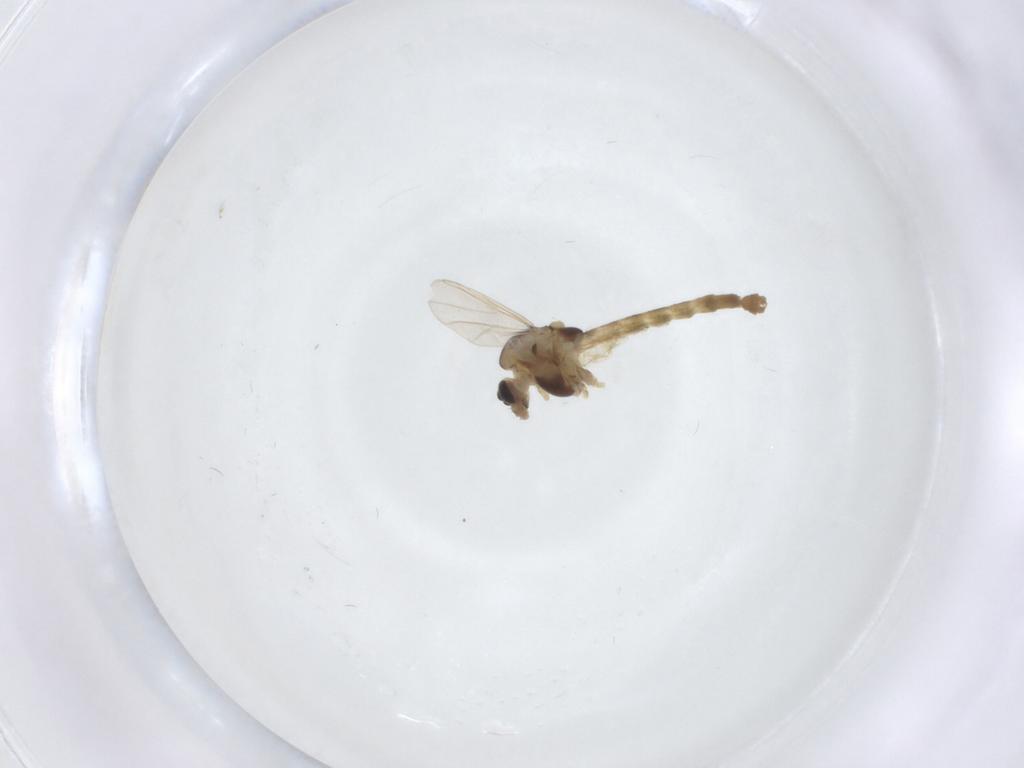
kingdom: Animalia
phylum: Arthropoda
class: Insecta
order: Diptera
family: Chironomidae
